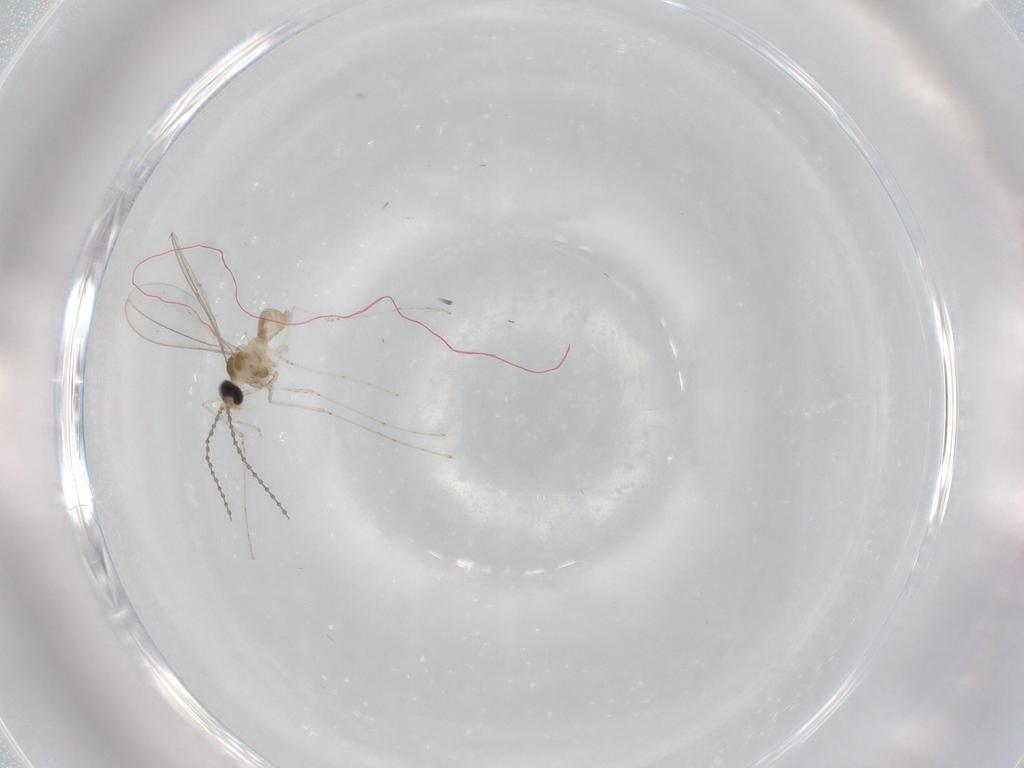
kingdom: Animalia
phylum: Arthropoda
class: Insecta
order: Diptera
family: Cecidomyiidae
